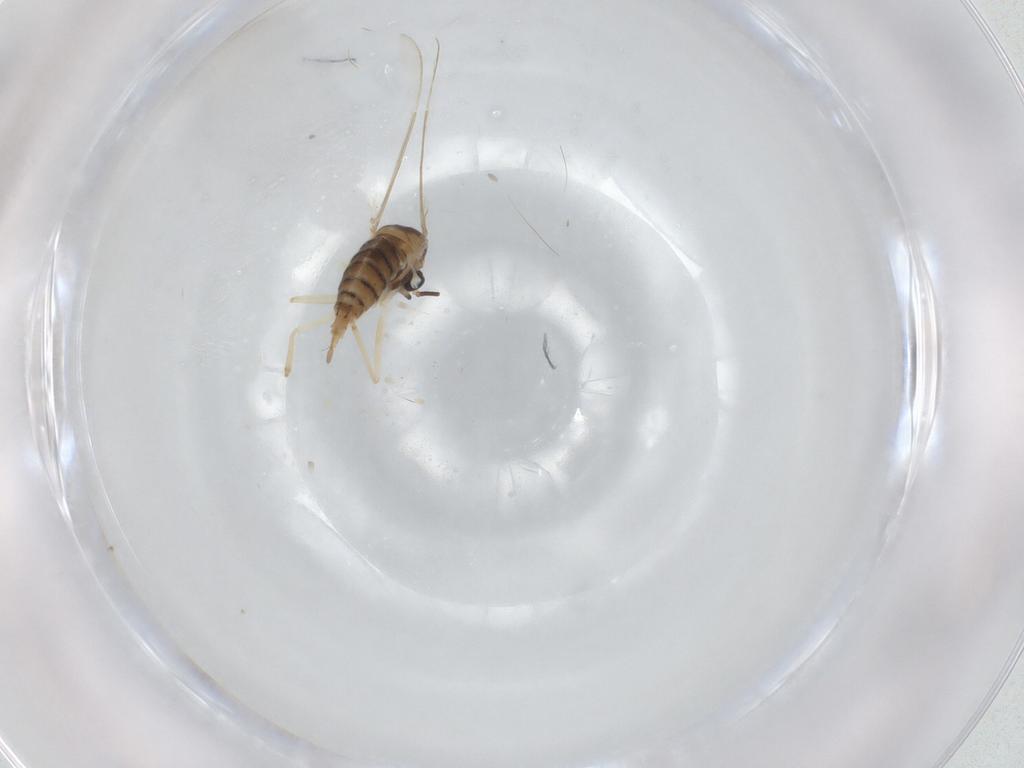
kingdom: Animalia
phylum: Arthropoda
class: Insecta
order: Diptera
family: Cecidomyiidae
